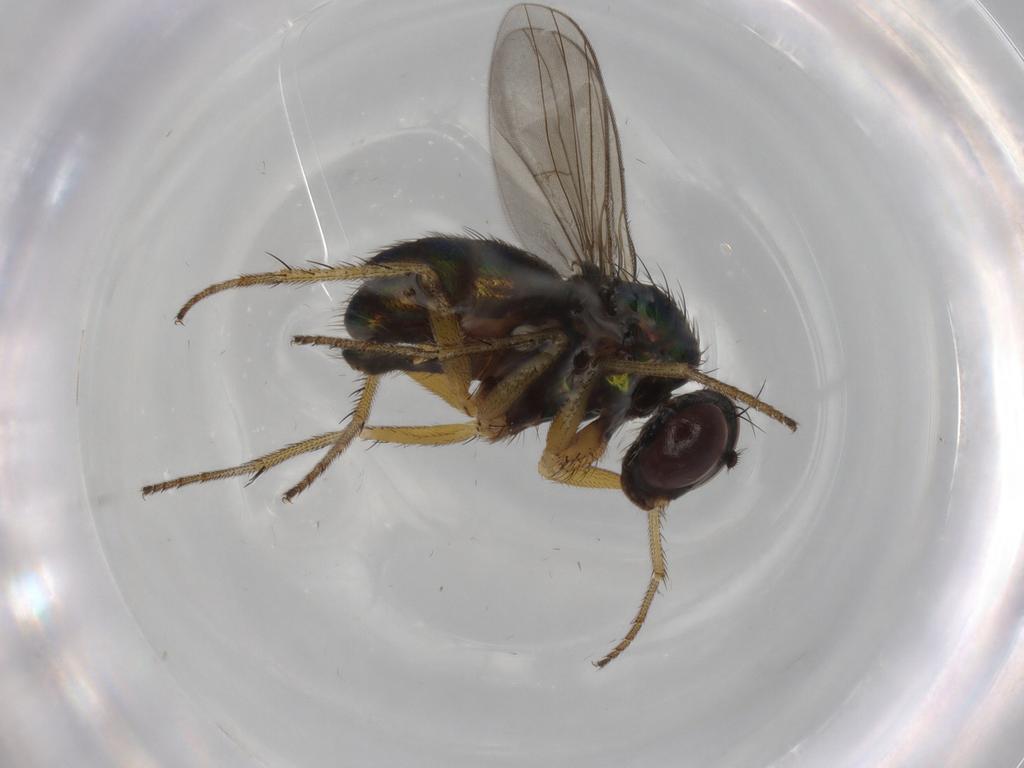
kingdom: Animalia
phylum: Arthropoda
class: Insecta
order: Diptera
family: Dolichopodidae
